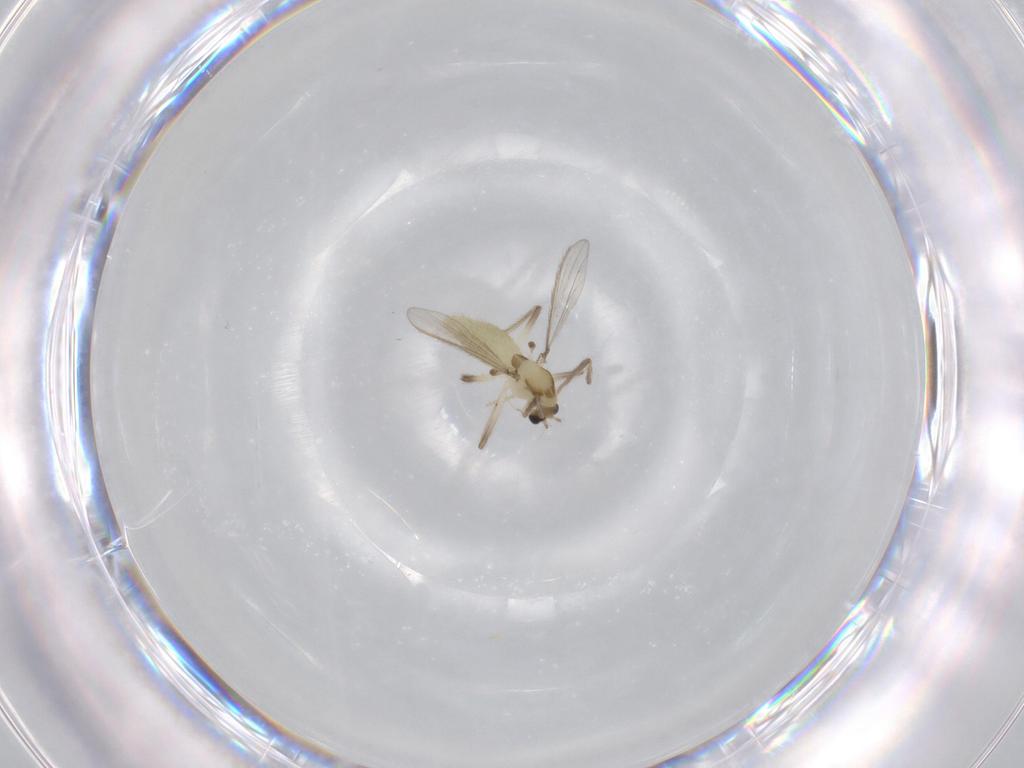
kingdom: Animalia
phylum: Arthropoda
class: Insecta
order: Diptera
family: Chironomidae
